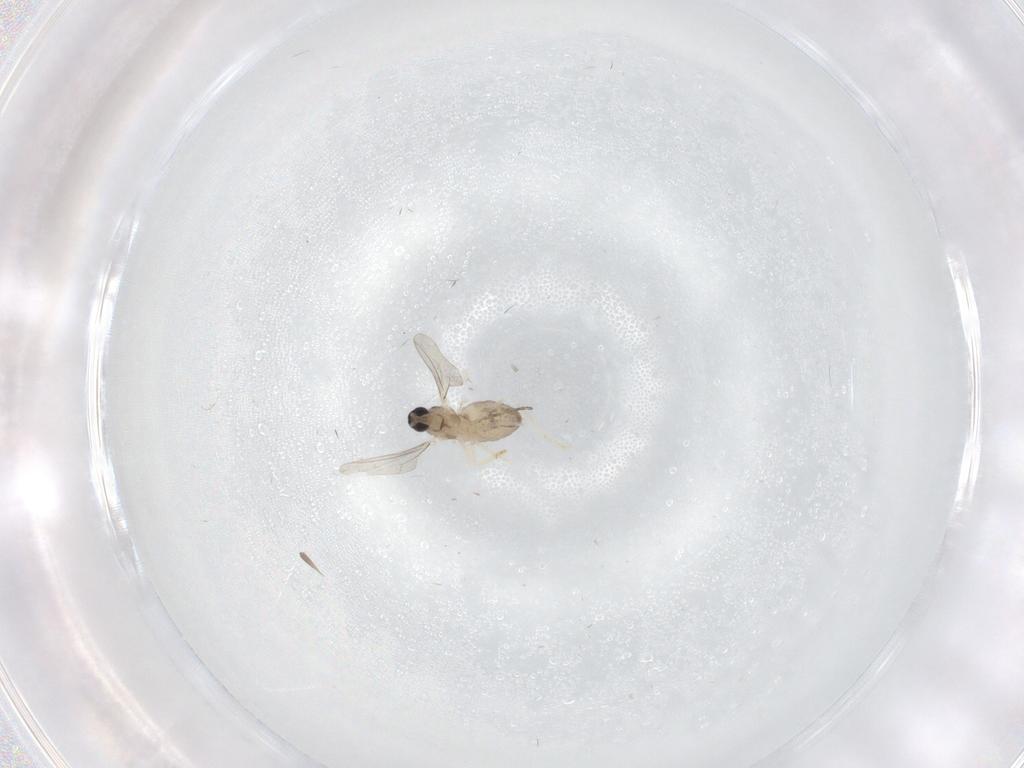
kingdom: Animalia
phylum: Arthropoda
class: Insecta
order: Diptera
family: Cecidomyiidae
